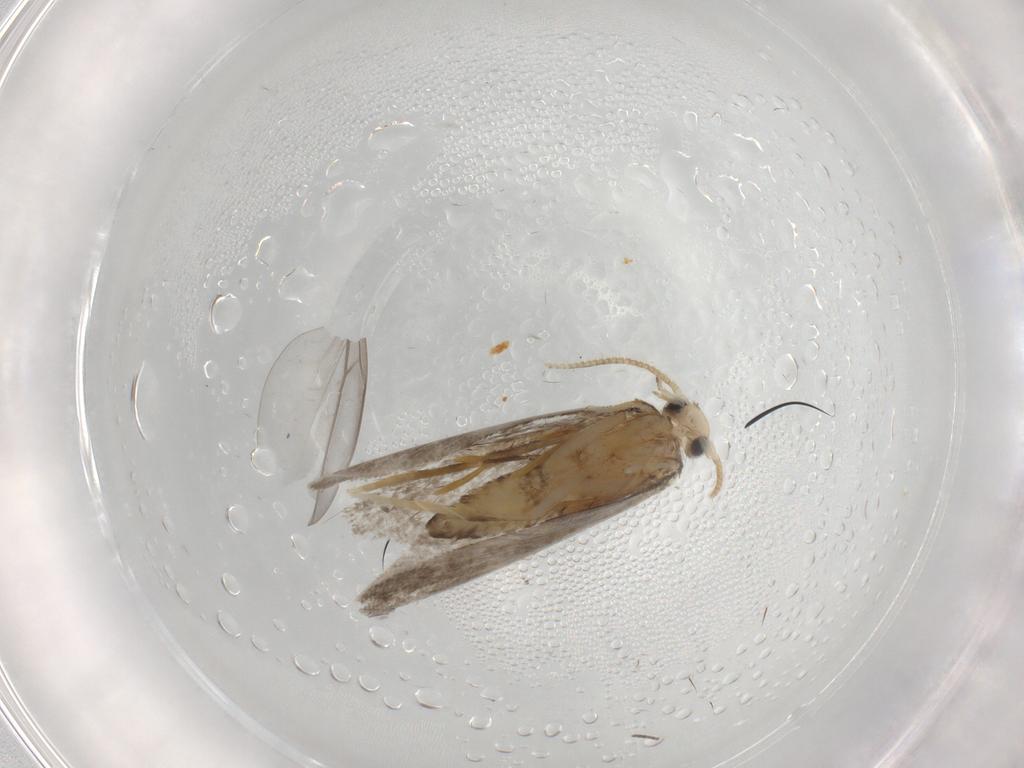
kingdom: Animalia
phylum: Arthropoda
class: Insecta
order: Lepidoptera
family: Psychidae
